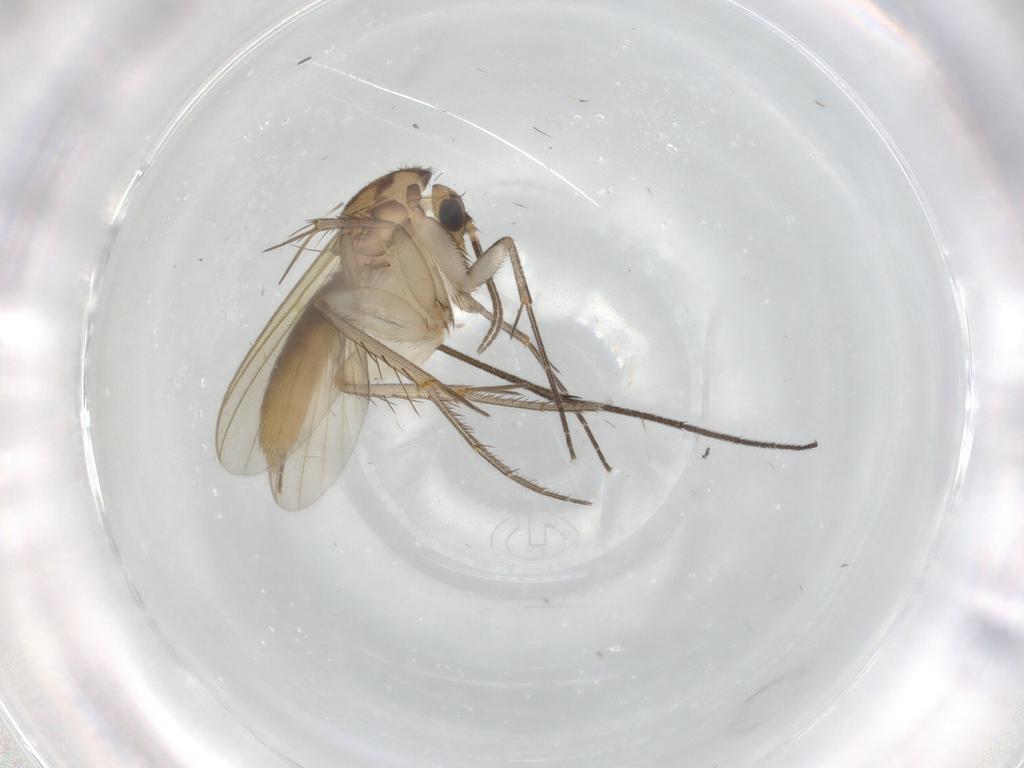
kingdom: Animalia
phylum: Arthropoda
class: Insecta
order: Diptera
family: Mycetophilidae
